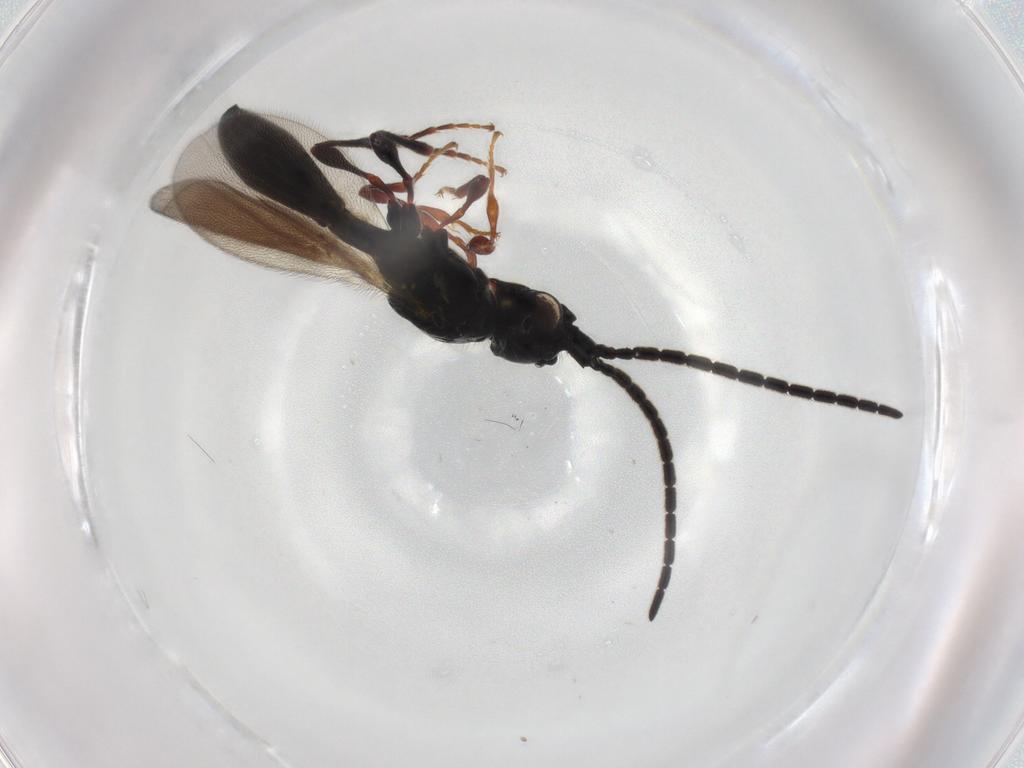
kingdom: Animalia
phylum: Arthropoda
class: Insecta
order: Hymenoptera
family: Diapriidae
